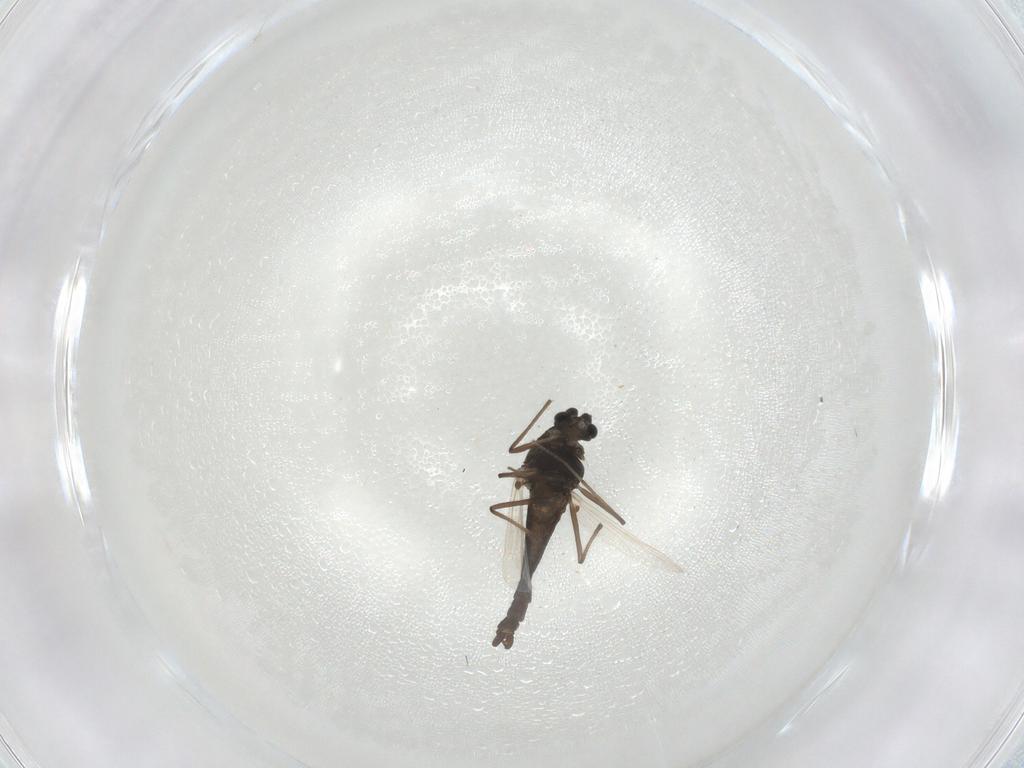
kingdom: Animalia
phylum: Arthropoda
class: Insecta
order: Diptera
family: Chironomidae
